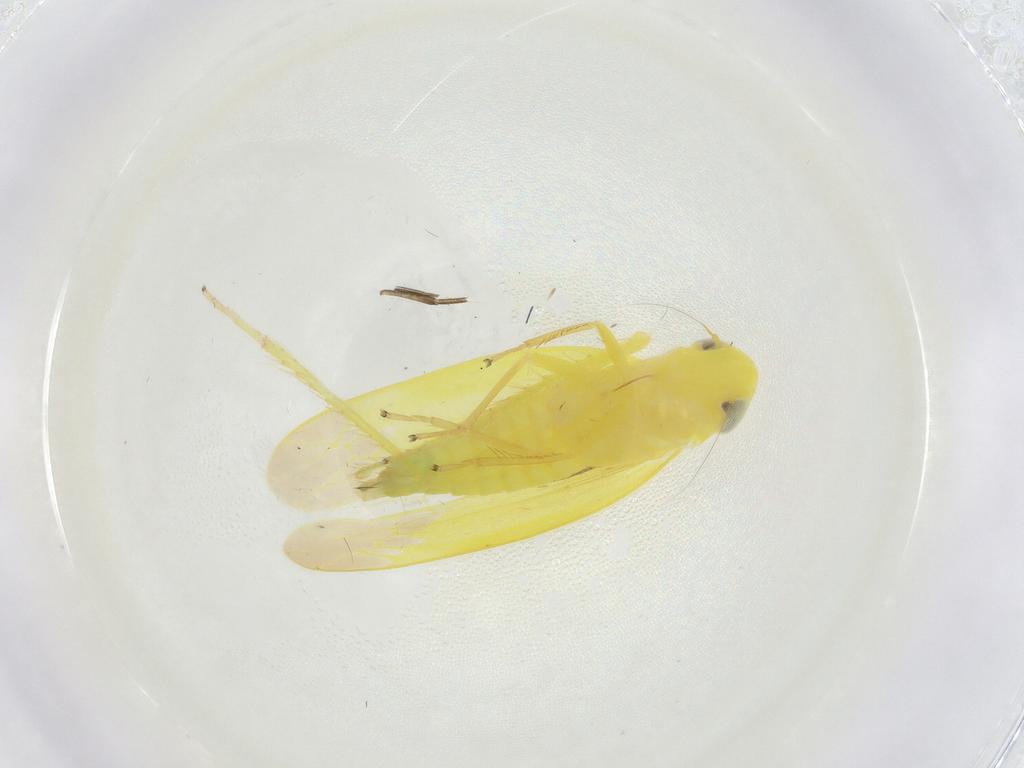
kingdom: Animalia
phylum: Arthropoda
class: Insecta
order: Hemiptera
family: Cicadellidae
